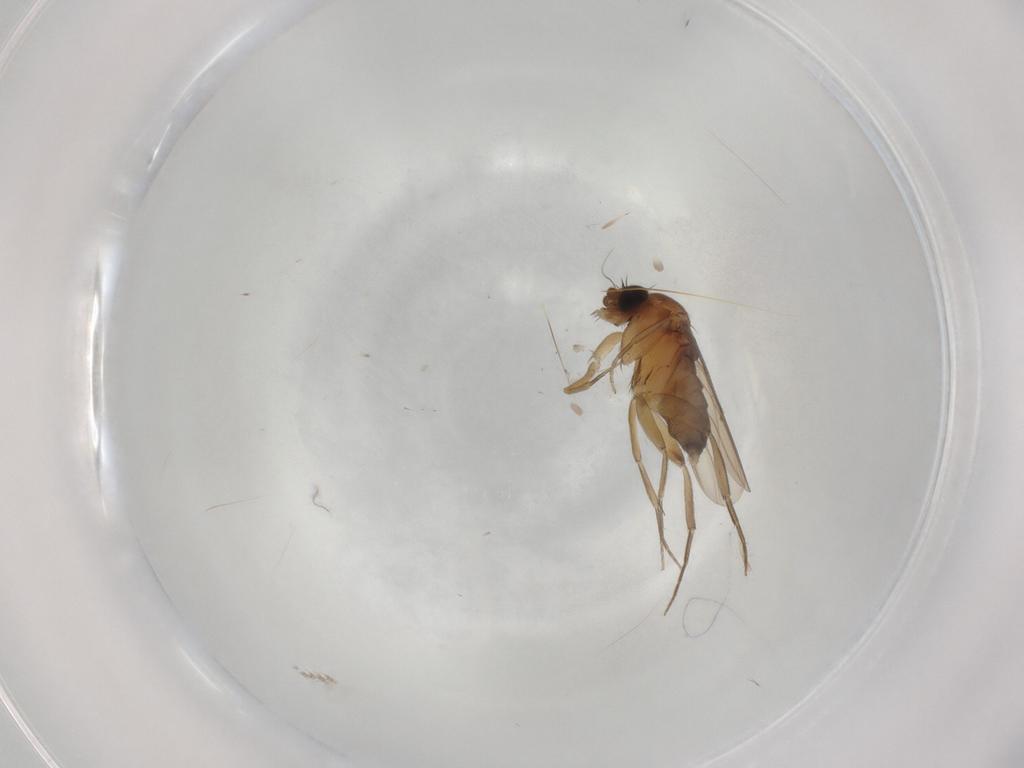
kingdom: Animalia
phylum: Arthropoda
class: Insecta
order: Diptera
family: Phoridae
